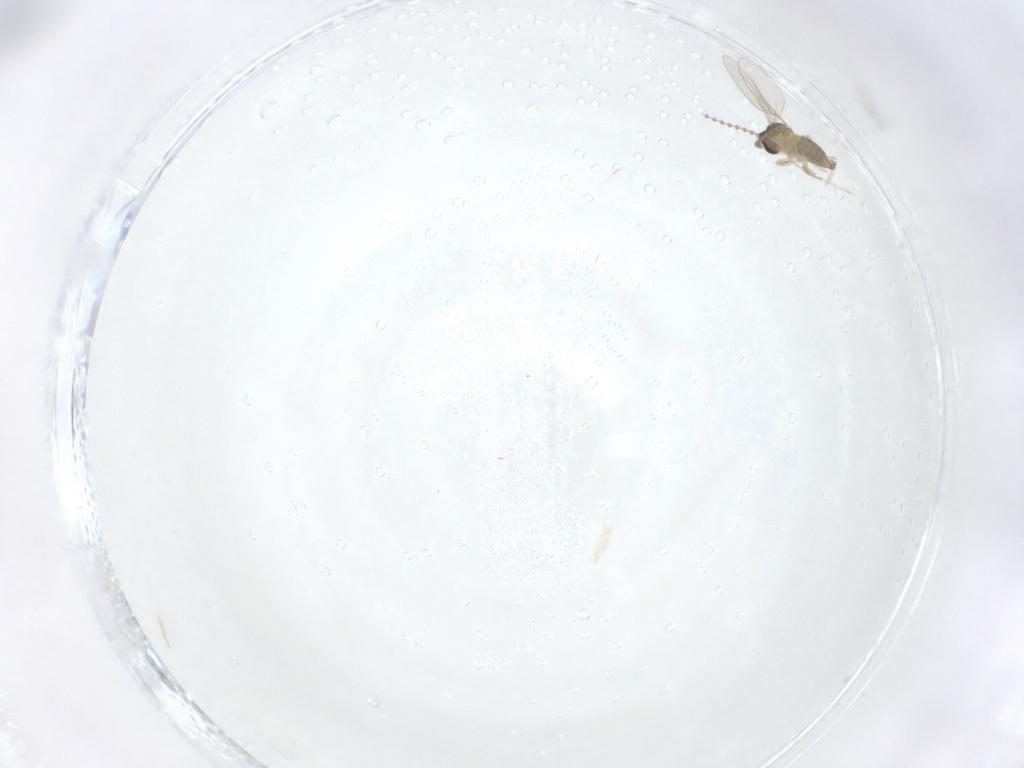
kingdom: Animalia
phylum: Arthropoda
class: Insecta
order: Diptera
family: Cecidomyiidae
